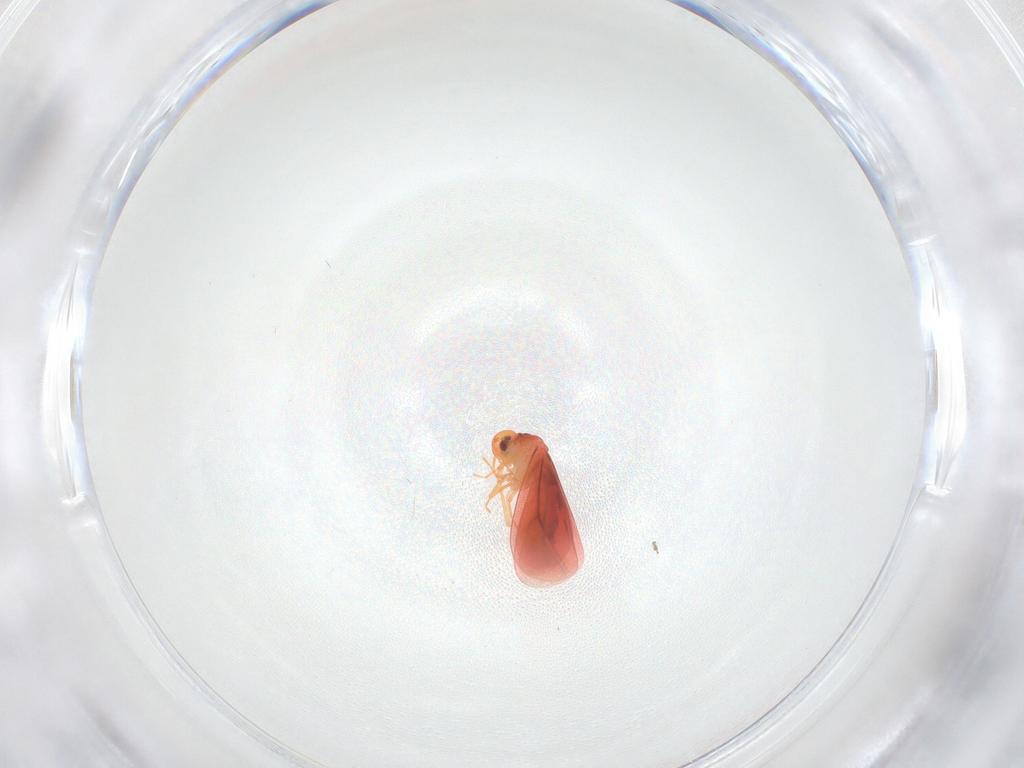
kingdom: Animalia
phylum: Arthropoda
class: Insecta
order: Hemiptera
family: Aleyrodidae
